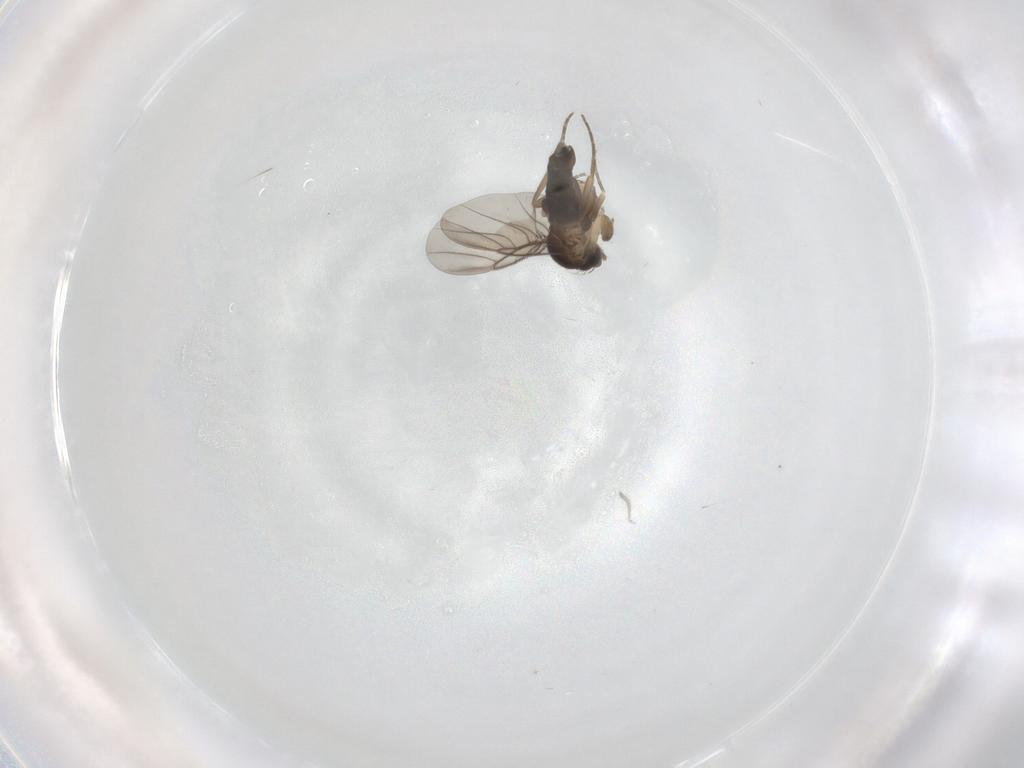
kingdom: Animalia
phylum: Arthropoda
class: Insecta
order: Diptera
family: Phoridae
